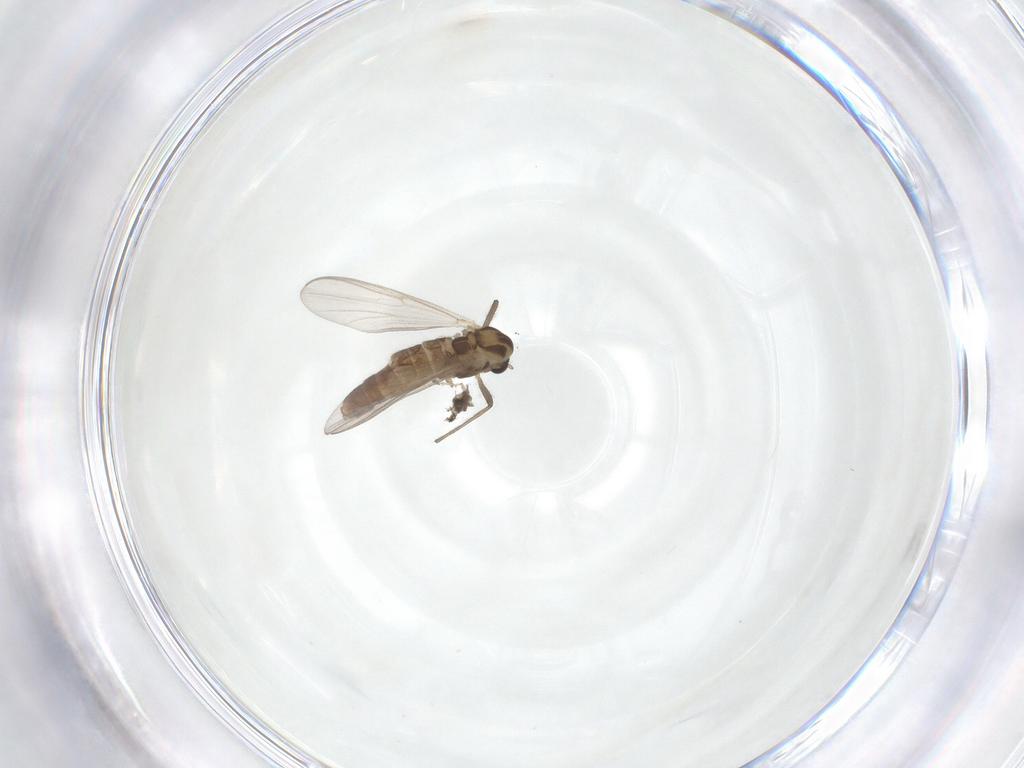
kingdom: Animalia
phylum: Arthropoda
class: Insecta
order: Diptera
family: Chironomidae
